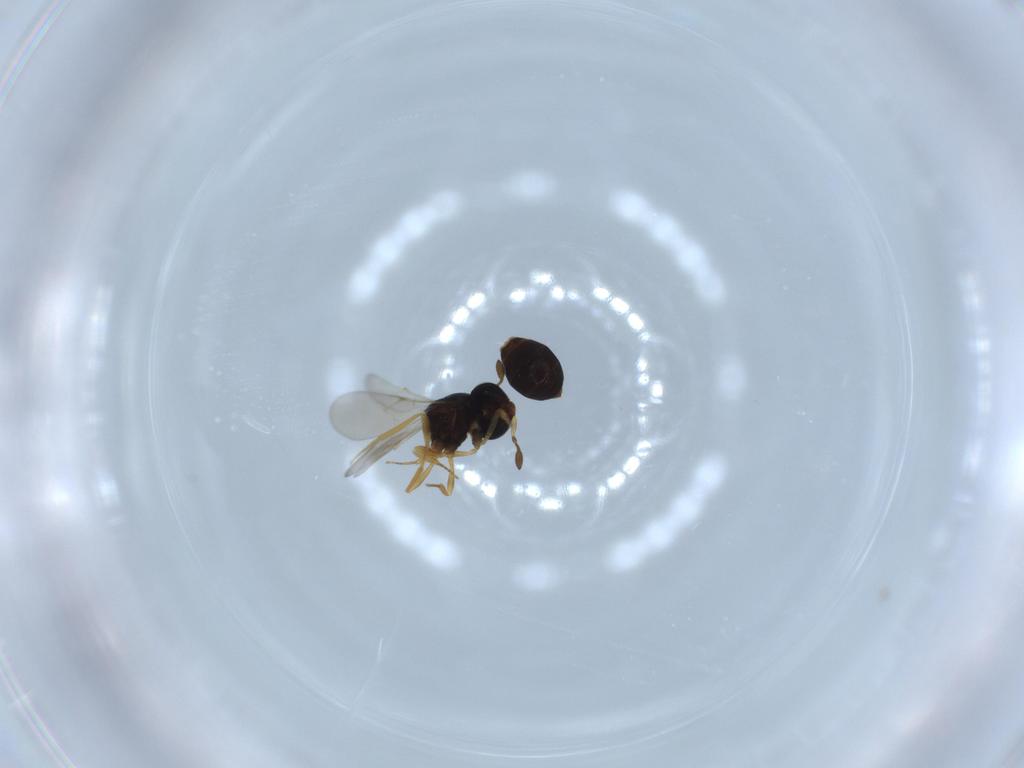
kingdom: Animalia
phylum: Arthropoda
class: Insecta
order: Hymenoptera
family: Scelionidae
